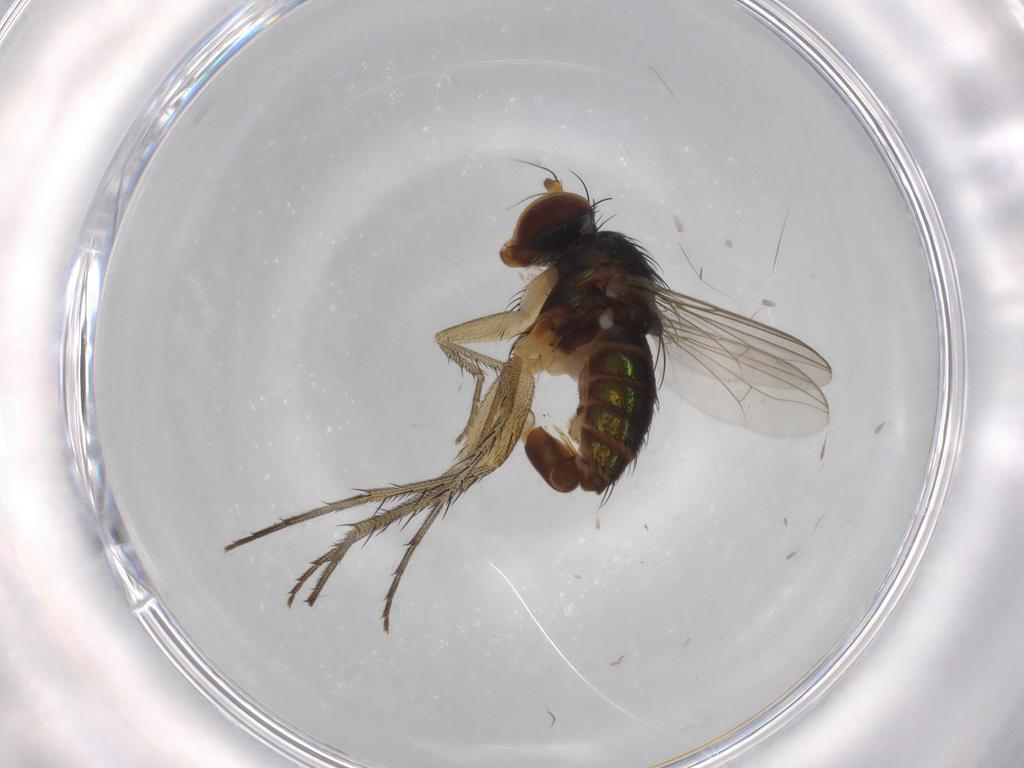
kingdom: Animalia
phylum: Arthropoda
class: Insecta
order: Diptera
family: Dolichopodidae
